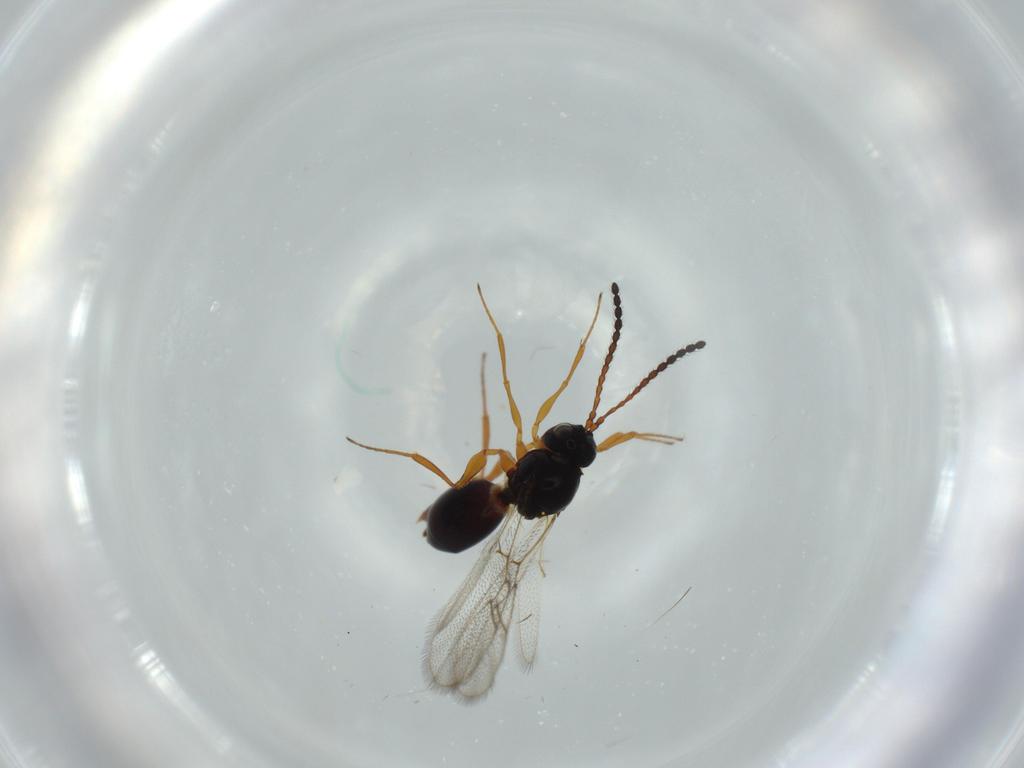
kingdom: Animalia
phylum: Arthropoda
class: Insecta
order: Hymenoptera
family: Figitidae
